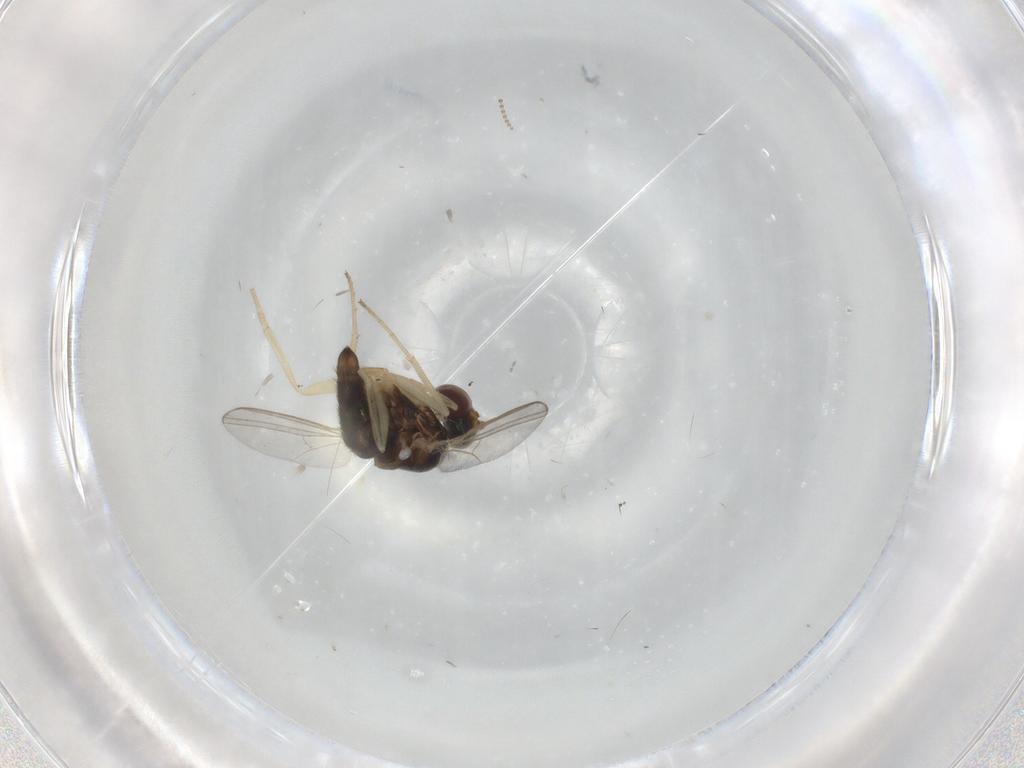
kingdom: Animalia
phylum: Arthropoda
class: Insecta
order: Diptera
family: Dolichopodidae
